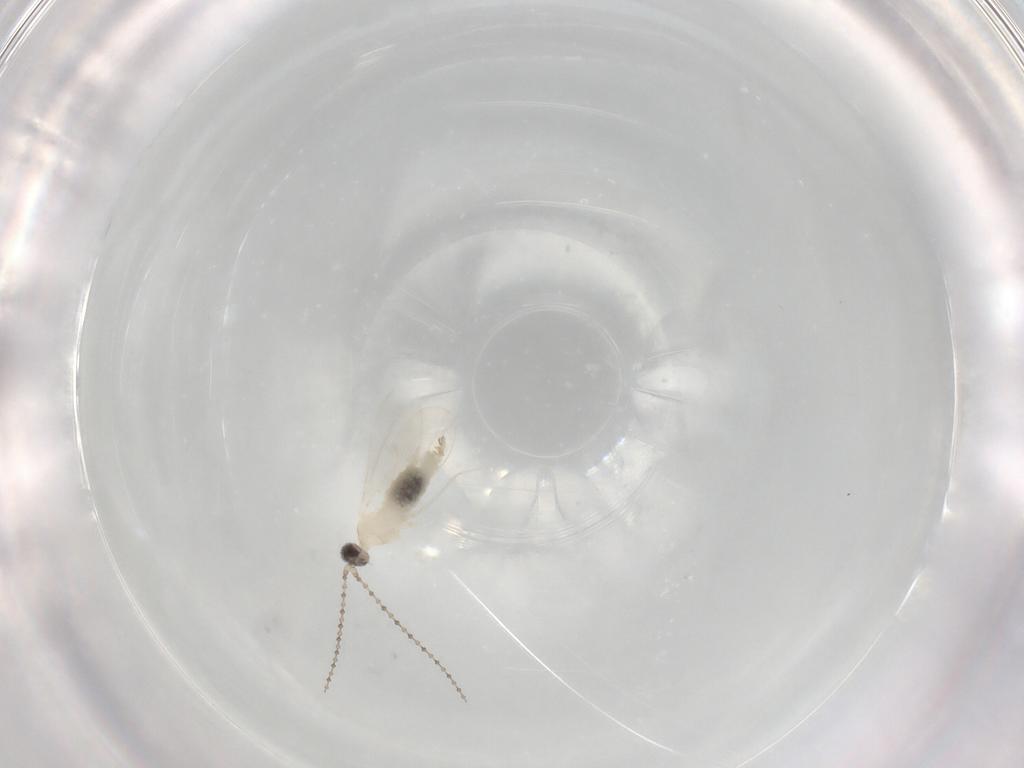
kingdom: Animalia
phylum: Arthropoda
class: Insecta
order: Diptera
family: Cecidomyiidae
